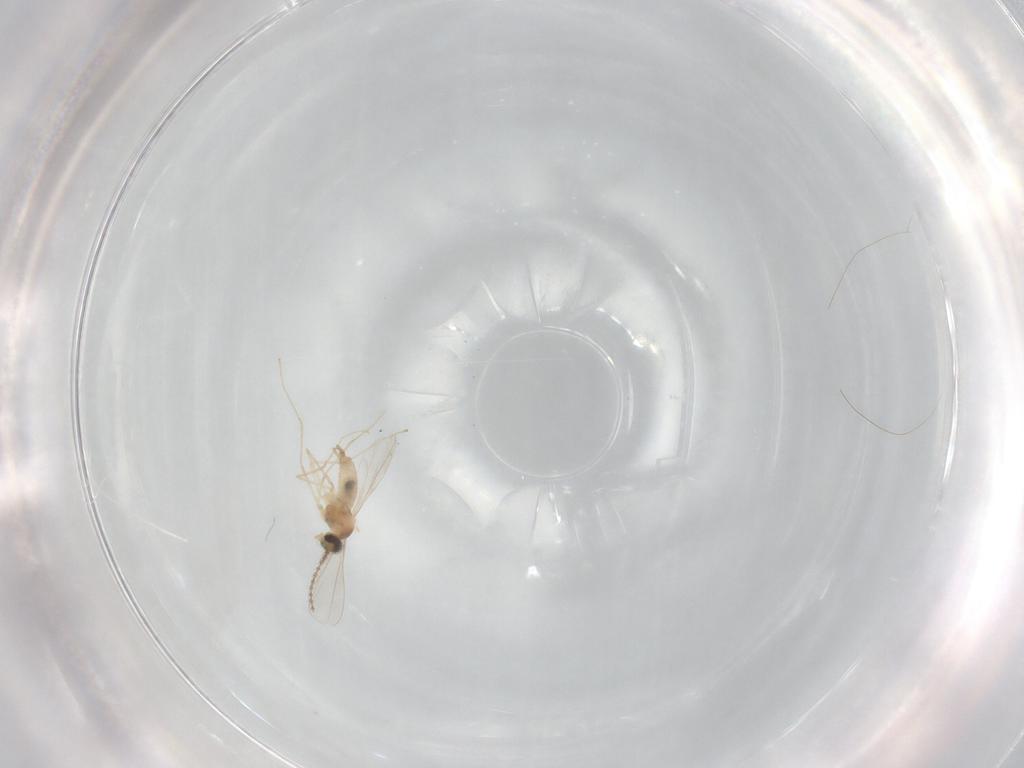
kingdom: Animalia
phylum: Arthropoda
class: Insecta
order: Diptera
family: Cecidomyiidae
